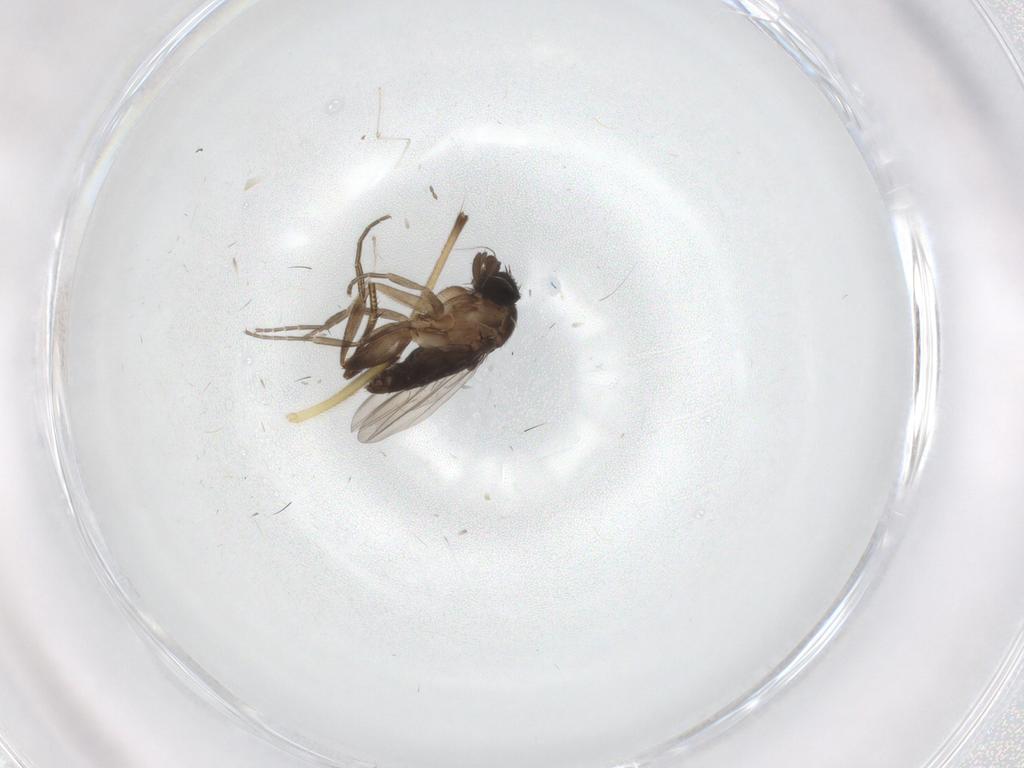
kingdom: Animalia
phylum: Arthropoda
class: Insecta
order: Diptera
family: Phoridae
